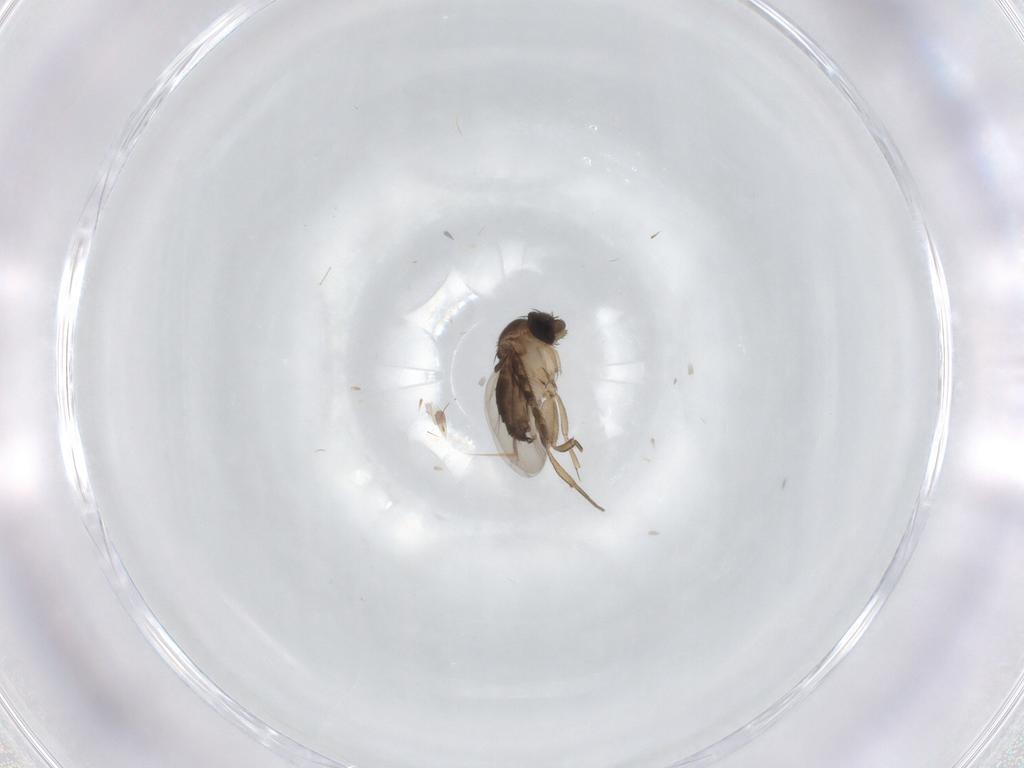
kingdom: Animalia
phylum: Arthropoda
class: Insecta
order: Diptera
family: Phoridae
